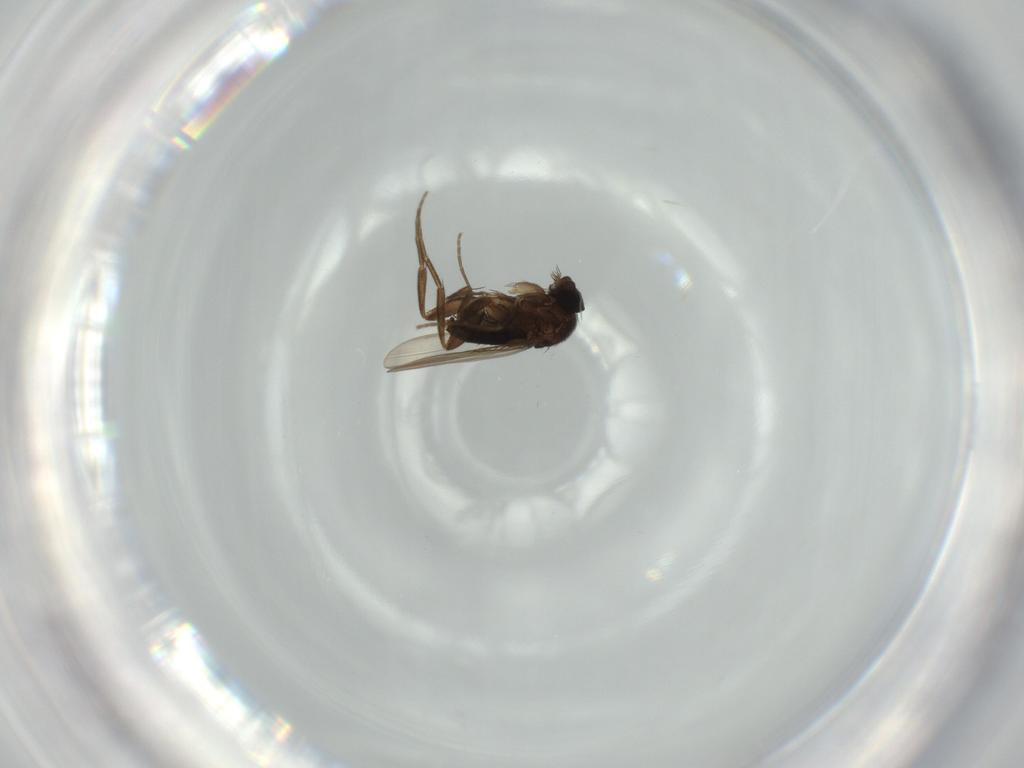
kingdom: Animalia
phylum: Arthropoda
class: Insecta
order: Diptera
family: Phoridae
